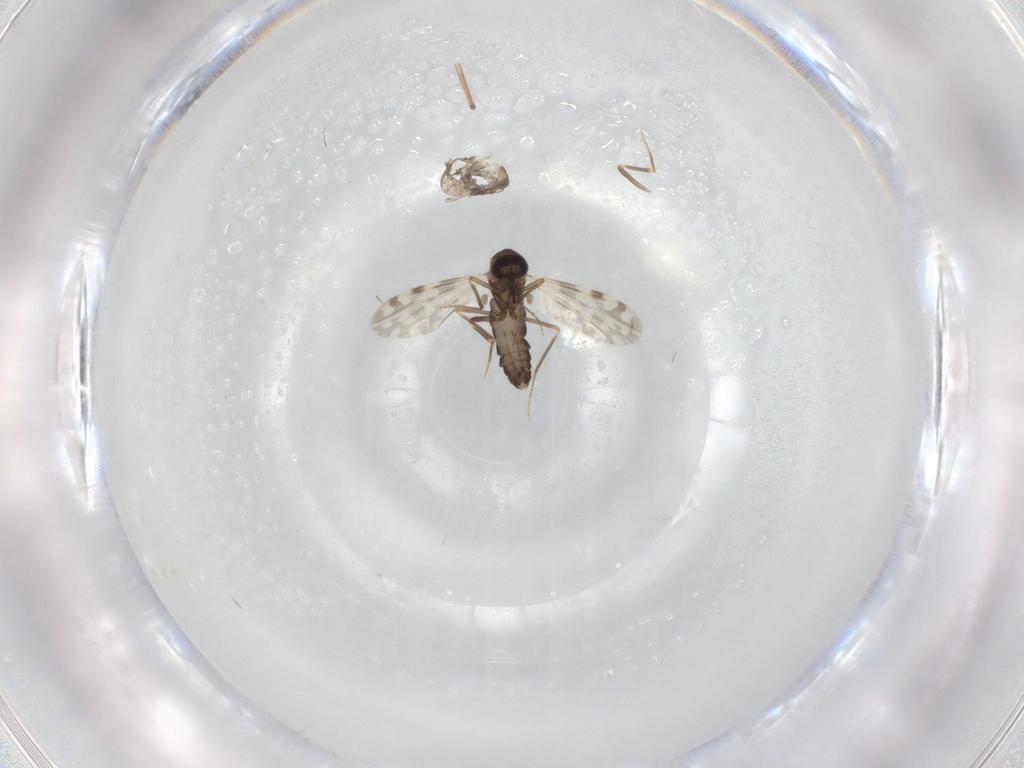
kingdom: Animalia
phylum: Arthropoda
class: Insecta
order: Diptera
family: Ceratopogonidae
